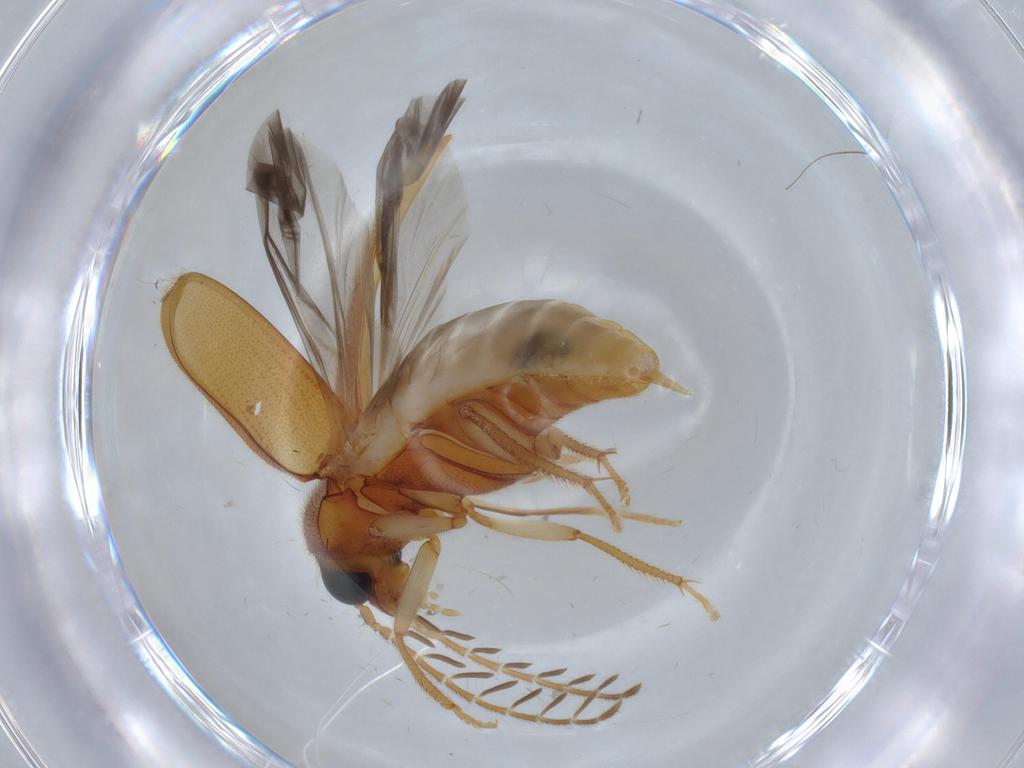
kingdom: Animalia
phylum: Arthropoda
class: Insecta
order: Coleoptera
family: Ptilodactylidae
